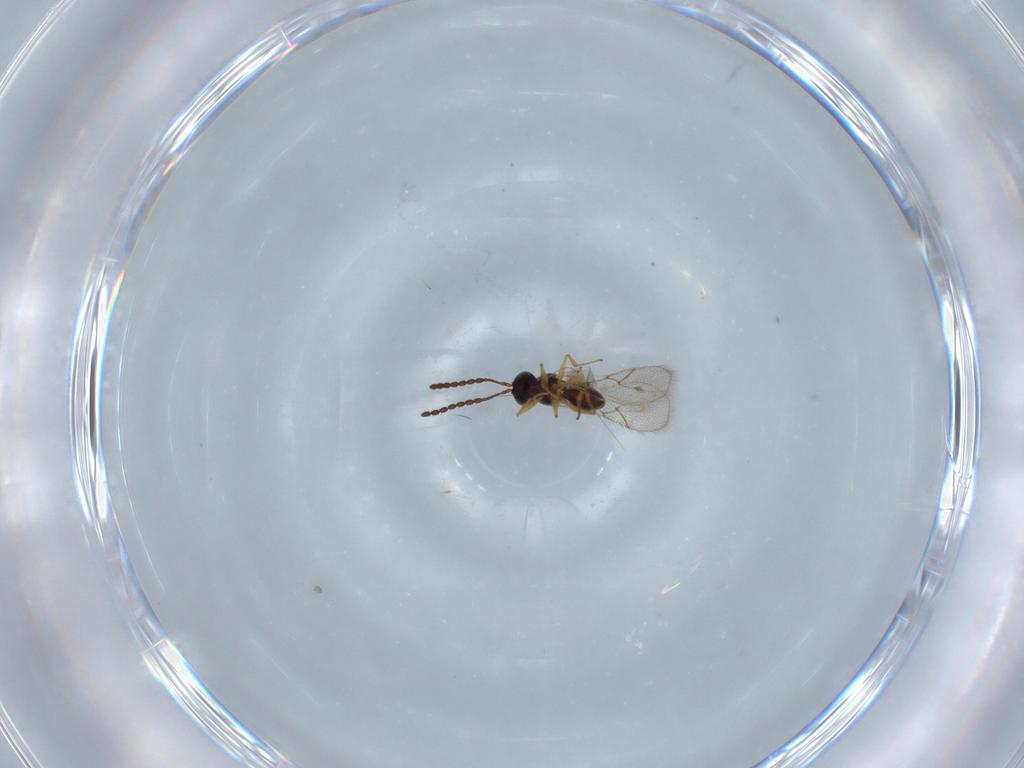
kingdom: Animalia
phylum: Arthropoda
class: Insecta
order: Hymenoptera
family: Figitidae
